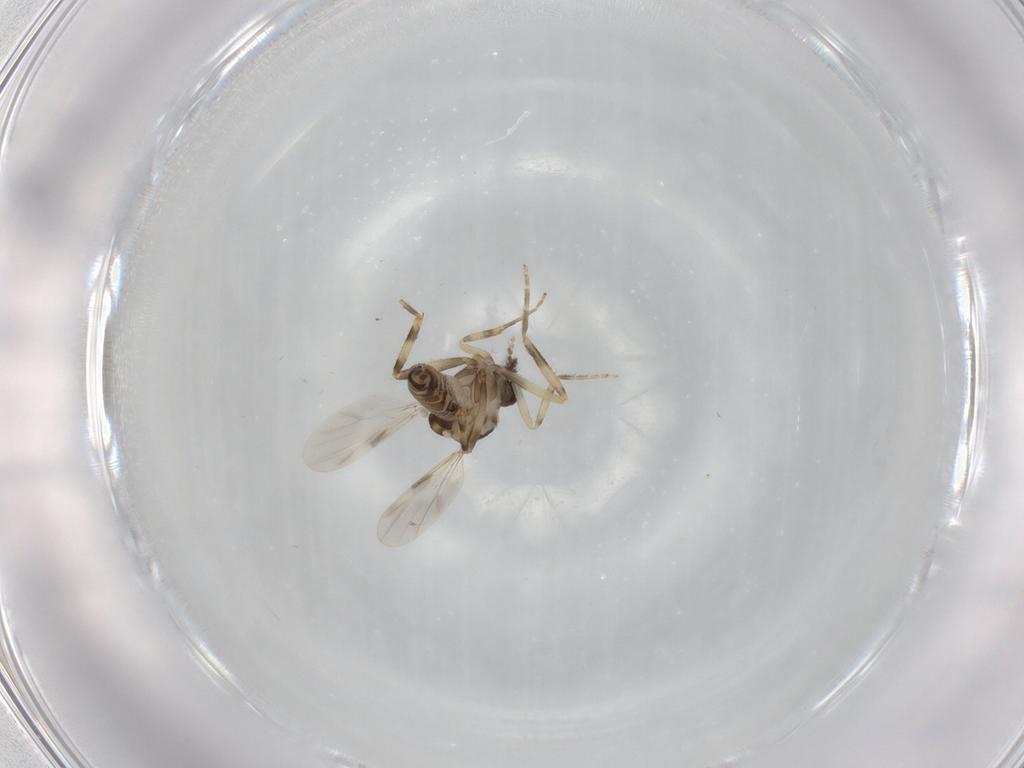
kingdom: Animalia
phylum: Arthropoda
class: Insecta
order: Diptera
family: Ceratopogonidae
